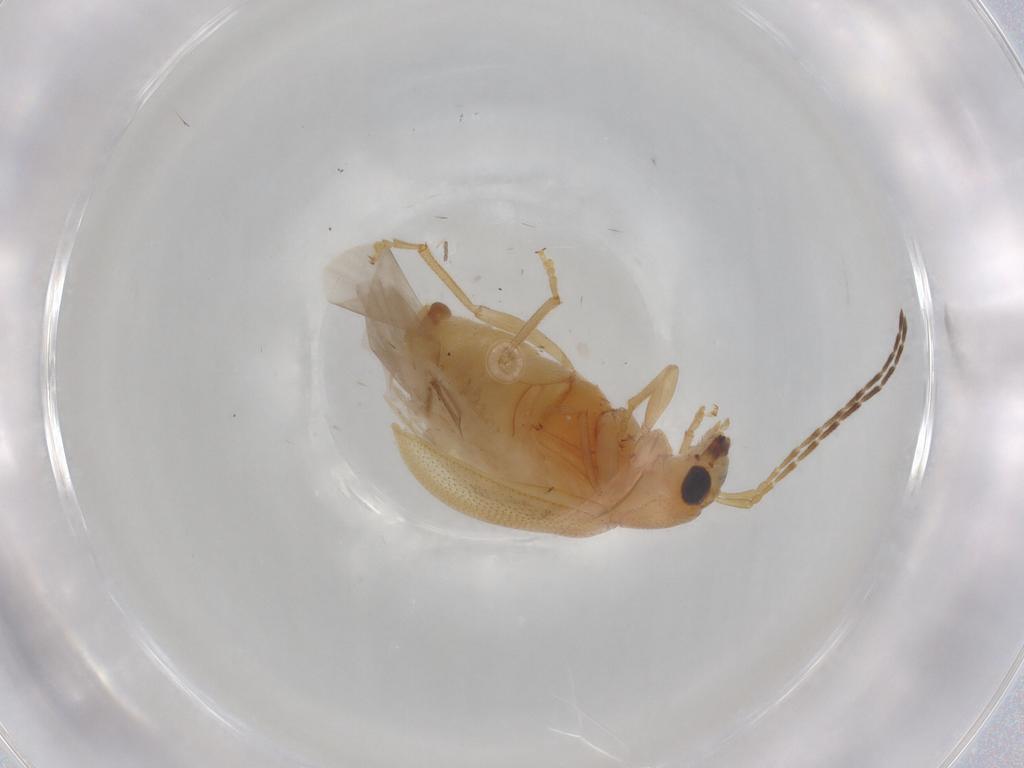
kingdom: Animalia
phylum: Arthropoda
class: Insecta
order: Coleoptera
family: Chrysomelidae
